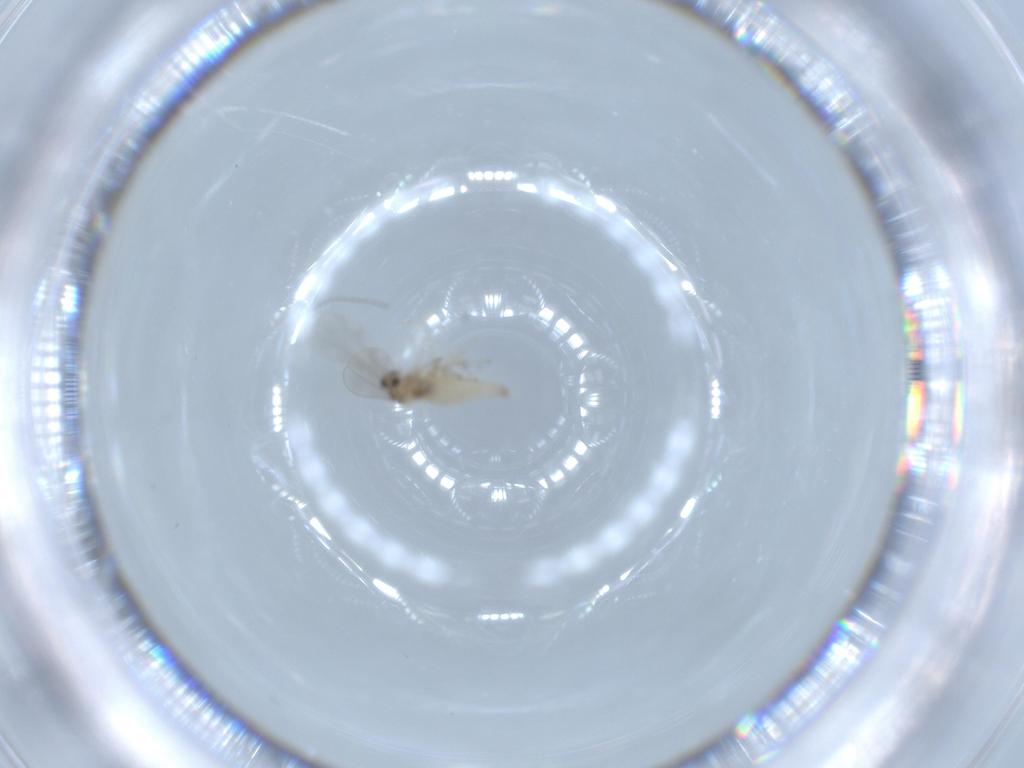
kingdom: Animalia
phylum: Arthropoda
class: Insecta
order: Diptera
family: Cecidomyiidae
